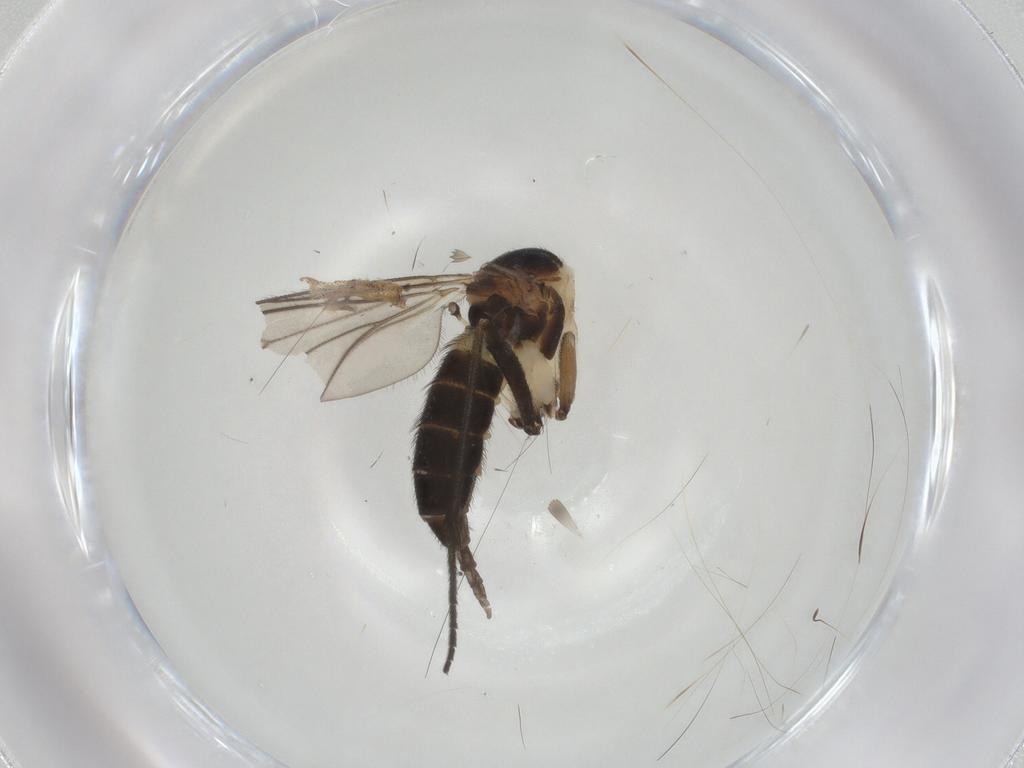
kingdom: Animalia
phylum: Arthropoda
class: Insecta
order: Diptera
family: Sciaridae
